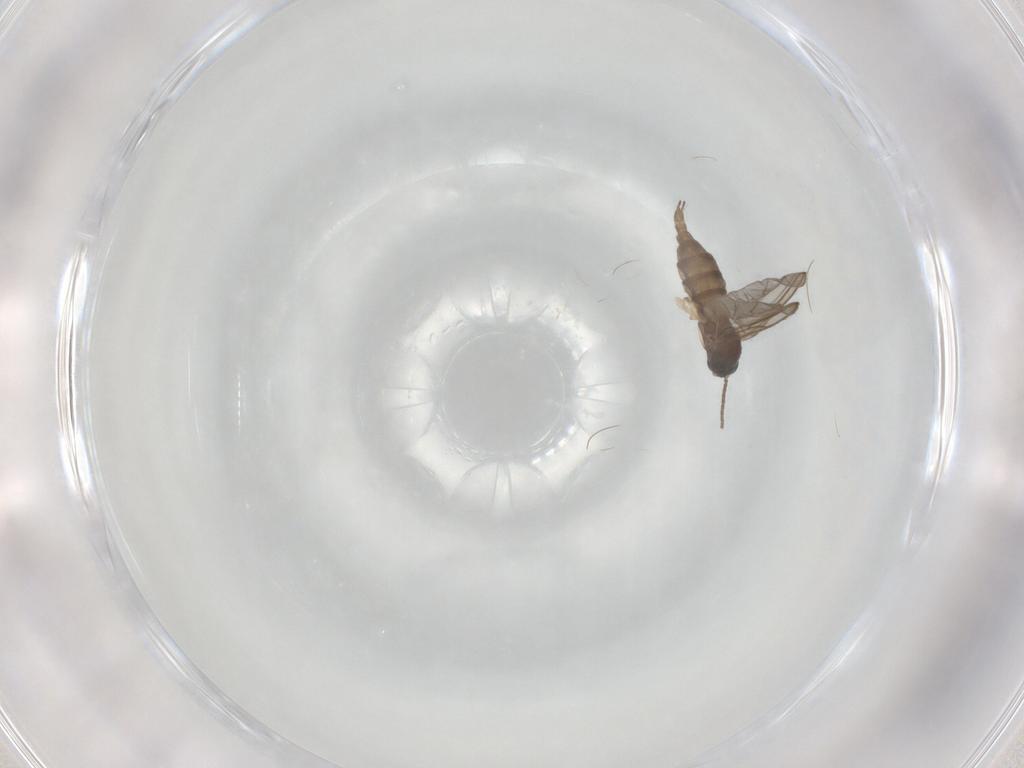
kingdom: Animalia
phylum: Arthropoda
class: Insecta
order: Diptera
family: Sciaridae
